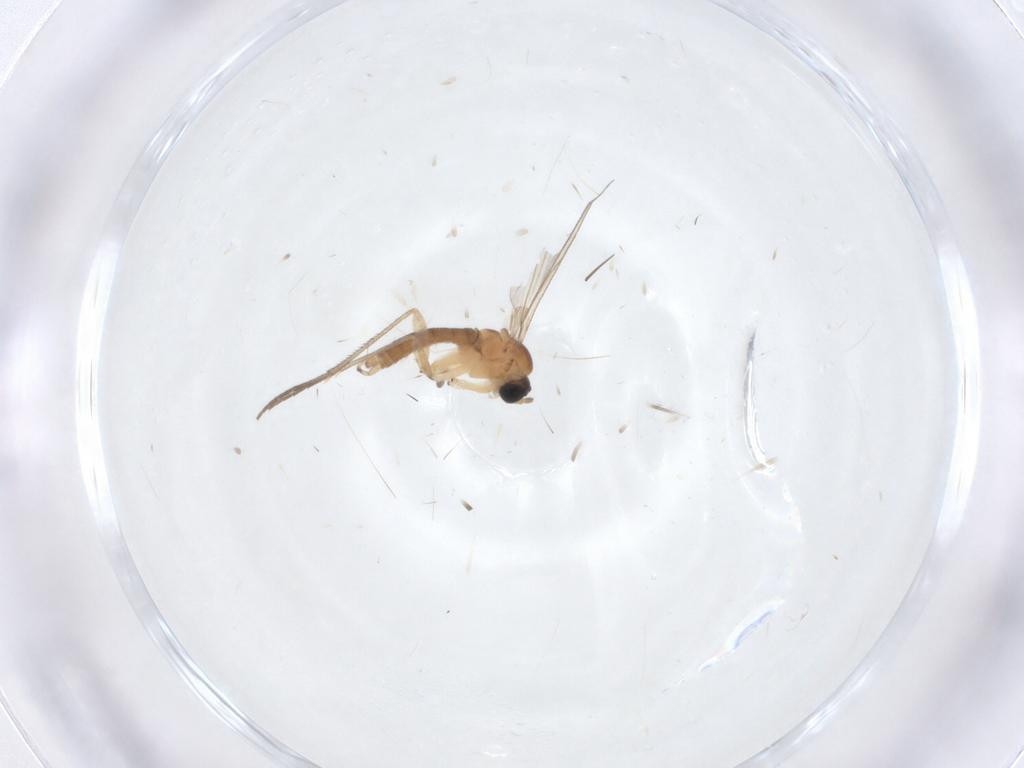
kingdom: Animalia
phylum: Arthropoda
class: Insecta
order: Diptera
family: Sciaridae
